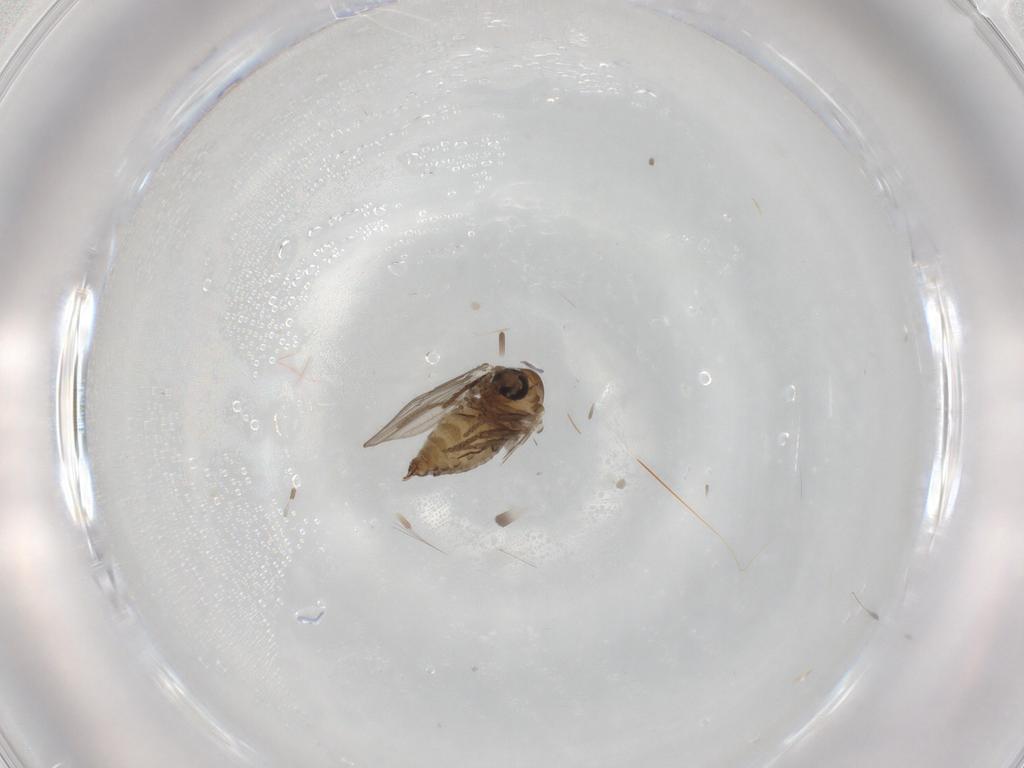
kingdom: Animalia
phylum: Arthropoda
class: Insecta
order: Diptera
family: Psychodidae
